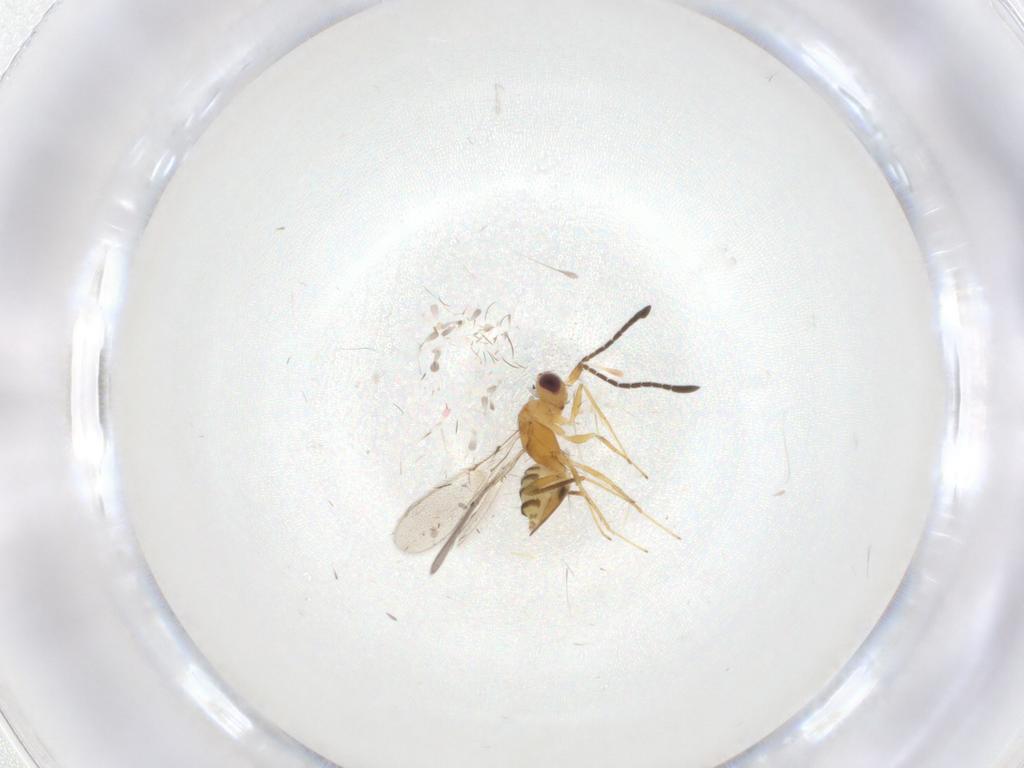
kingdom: Animalia
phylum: Arthropoda
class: Insecta
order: Hymenoptera
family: Mymaridae
